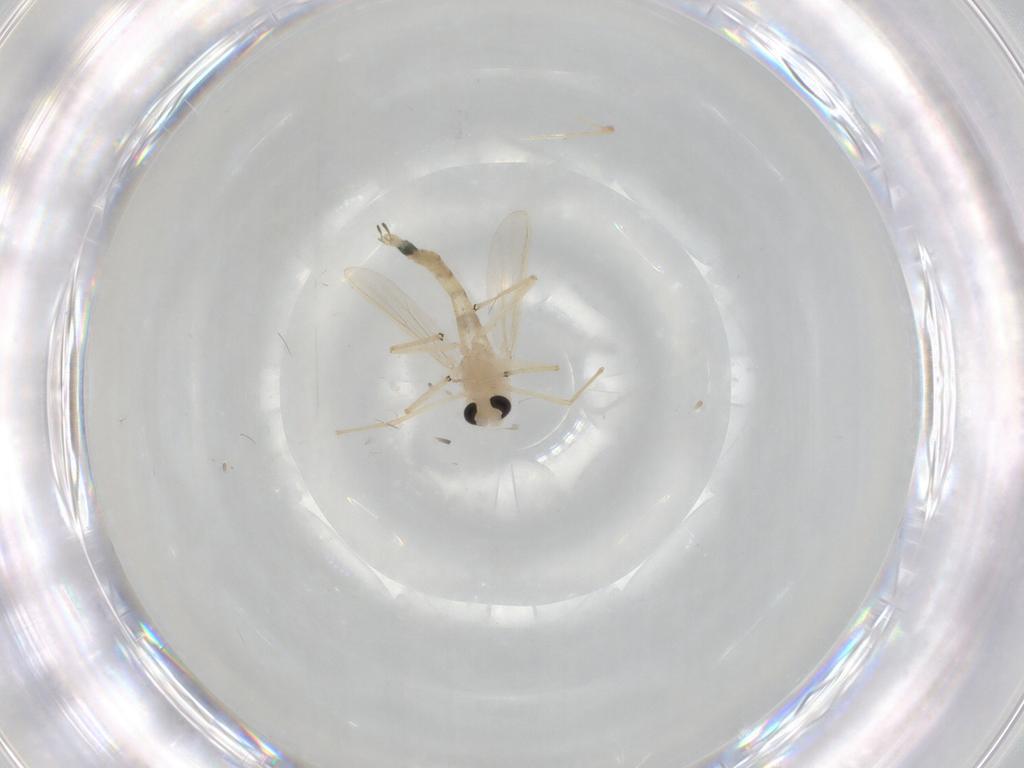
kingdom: Animalia
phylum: Arthropoda
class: Insecta
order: Diptera
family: Chironomidae
